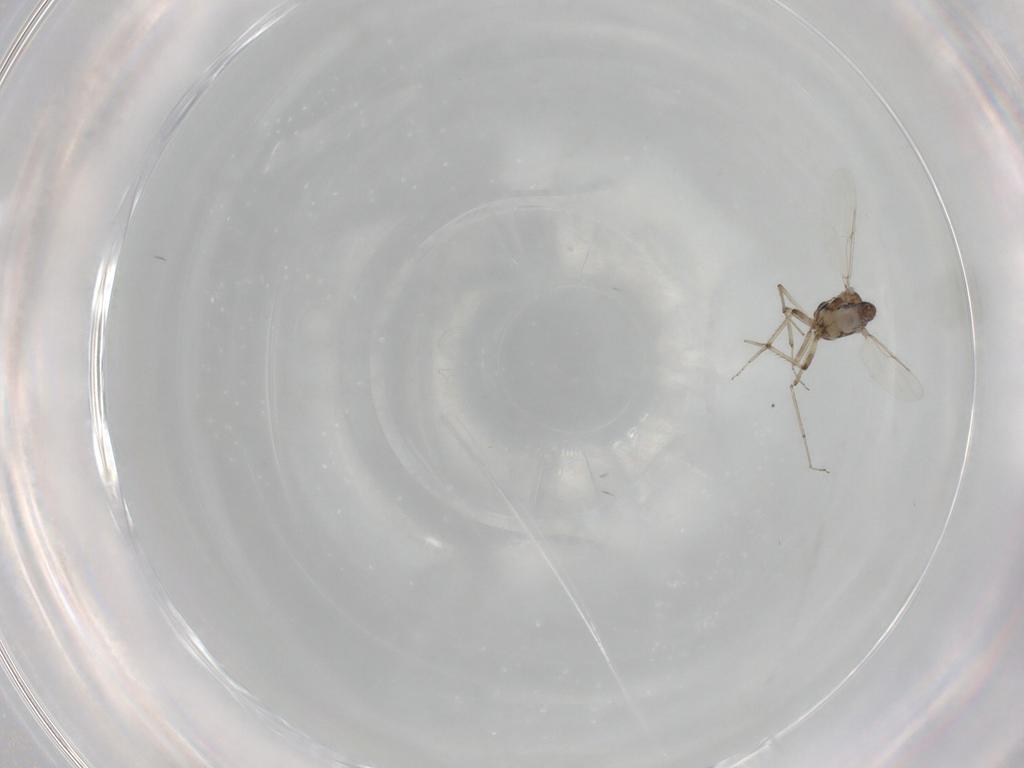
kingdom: Animalia
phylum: Arthropoda
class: Insecta
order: Diptera
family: Ceratopogonidae
